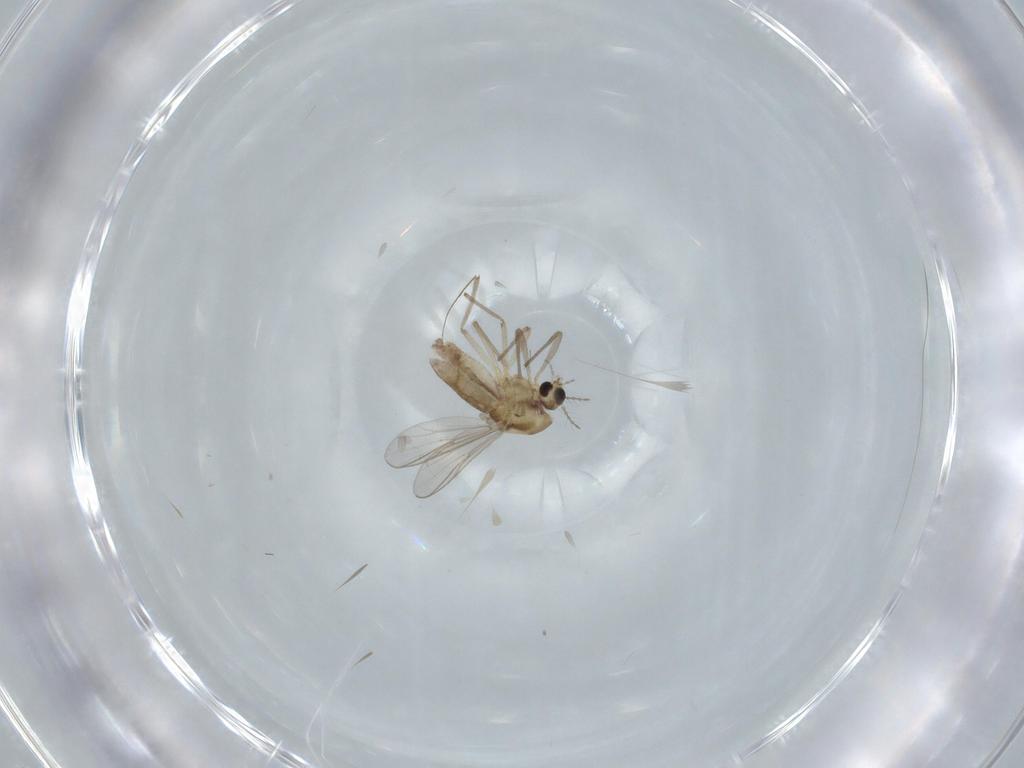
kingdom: Animalia
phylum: Arthropoda
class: Insecta
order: Diptera
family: Chironomidae
